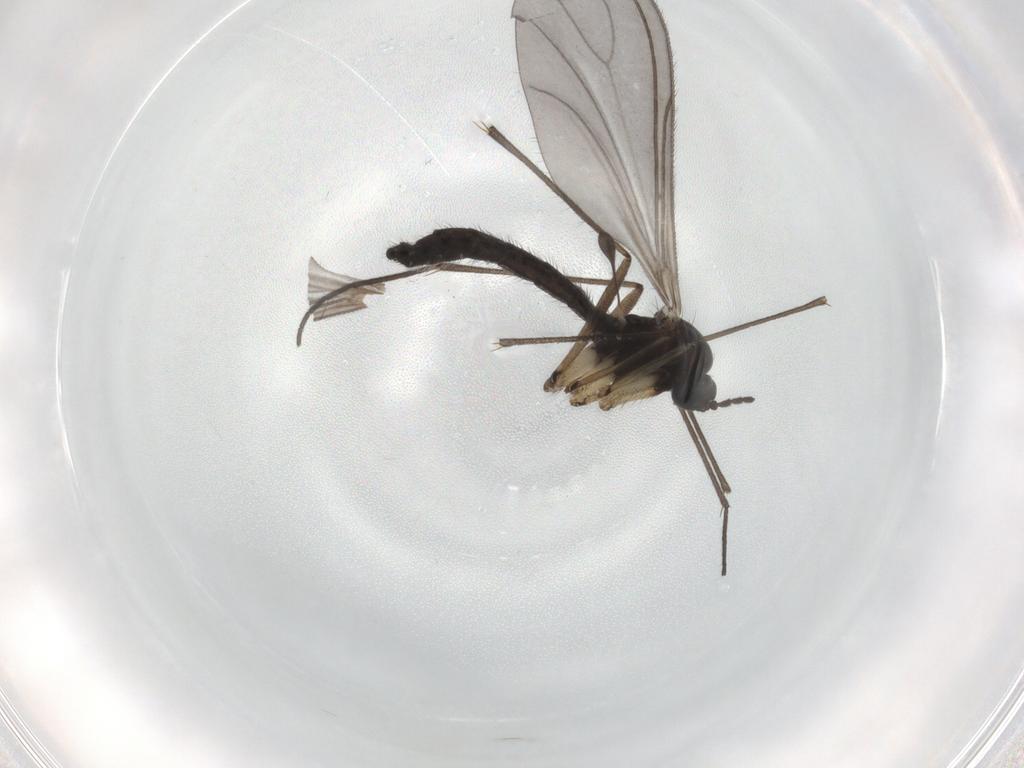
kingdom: Animalia
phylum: Arthropoda
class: Insecta
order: Diptera
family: Sciaridae
